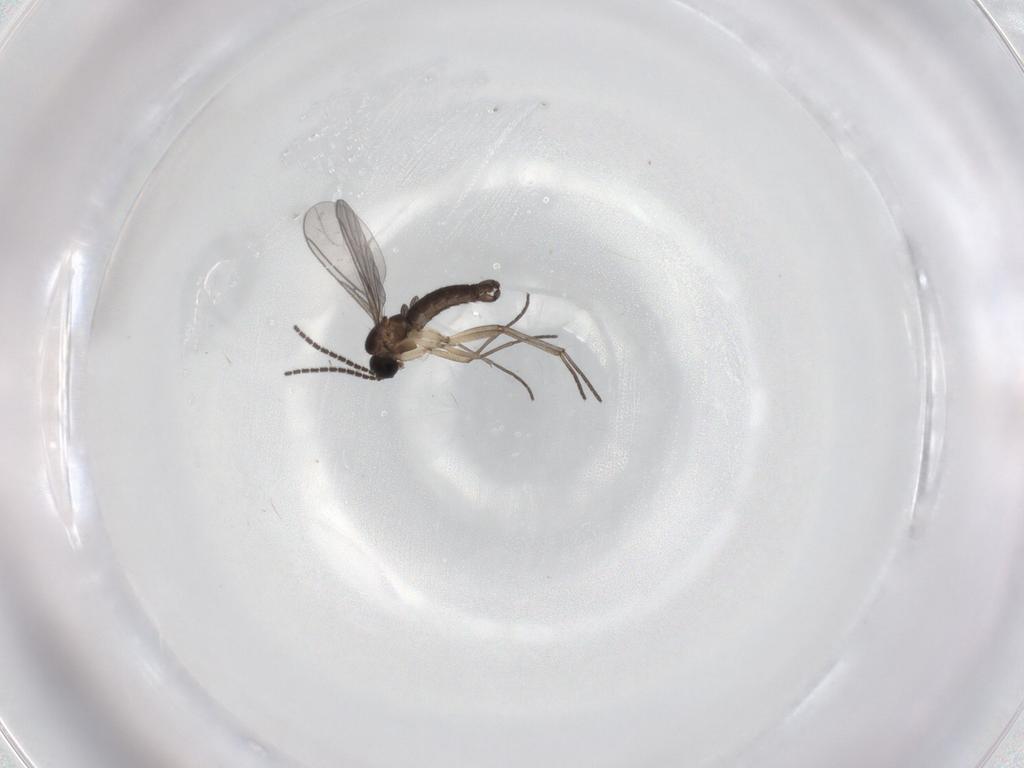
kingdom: Animalia
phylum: Arthropoda
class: Insecta
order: Diptera
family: Sciaridae
